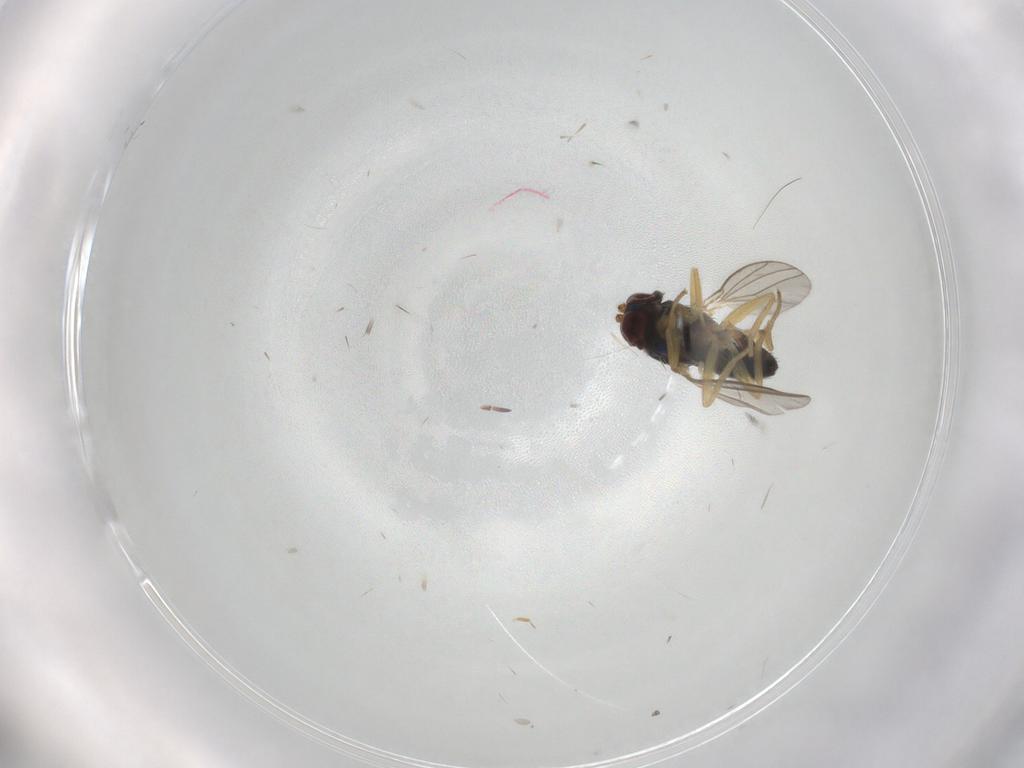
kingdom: Animalia
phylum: Arthropoda
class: Insecta
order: Diptera
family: Dolichopodidae
